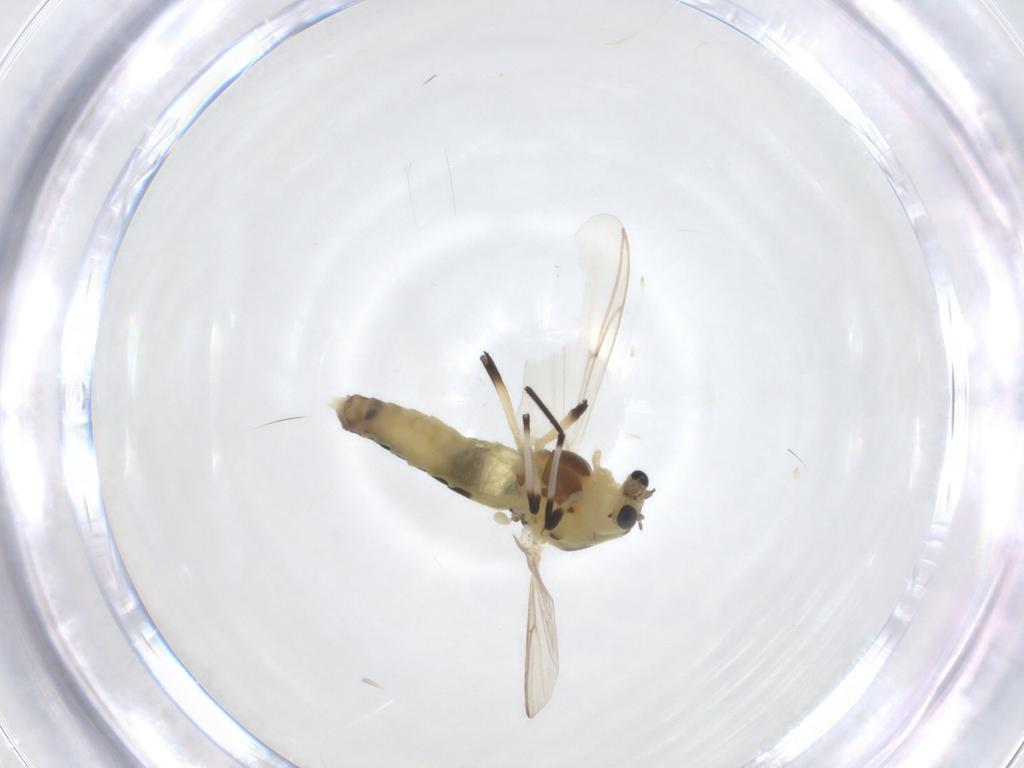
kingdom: Animalia
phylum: Arthropoda
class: Insecta
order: Diptera
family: Chironomidae
